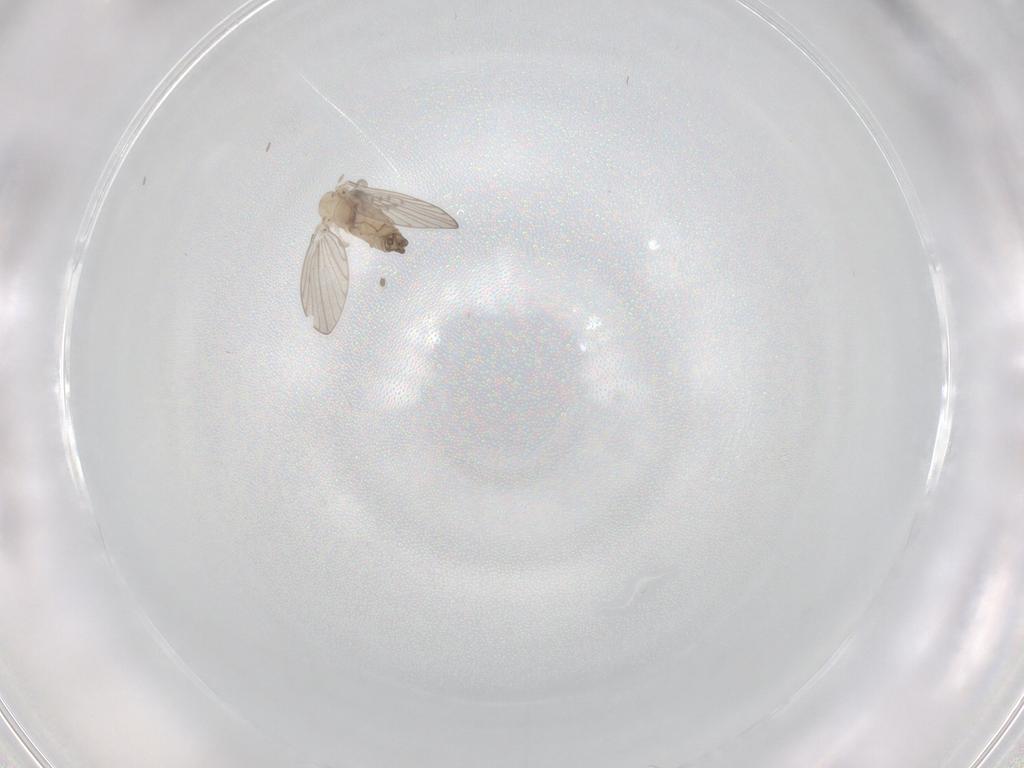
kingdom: Animalia
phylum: Arthropoda
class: Insecta
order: Diptera
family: Psychodidae
